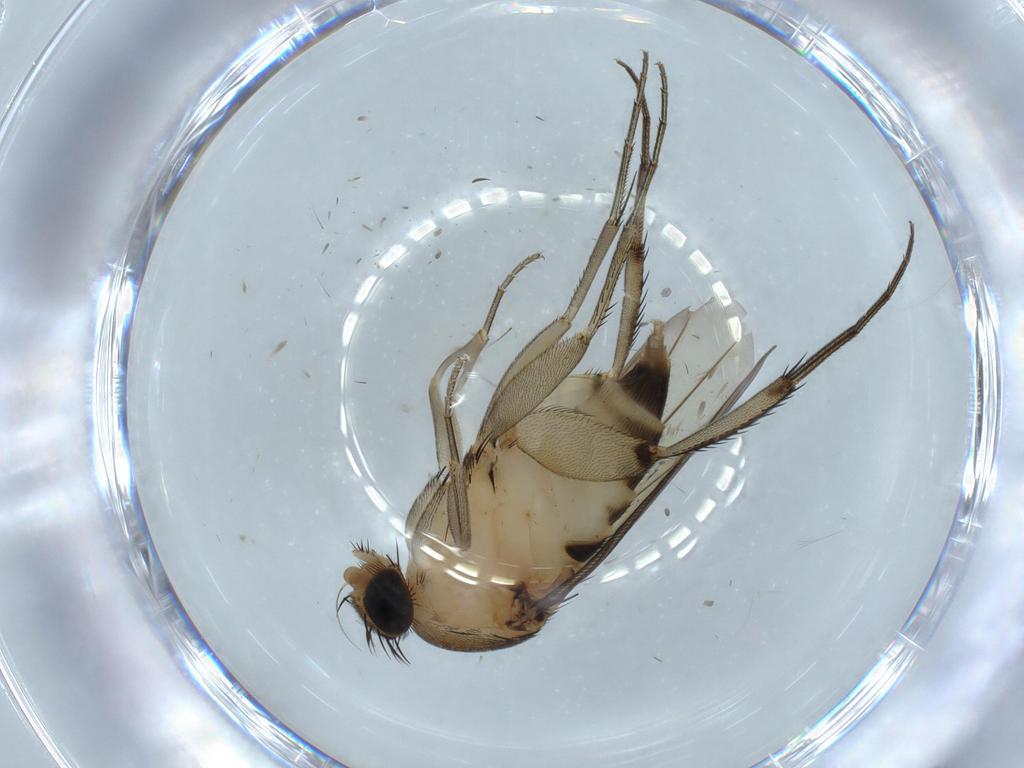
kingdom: Animalia
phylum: Arthropoda
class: Insecta
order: Diptera
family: Phoridae
